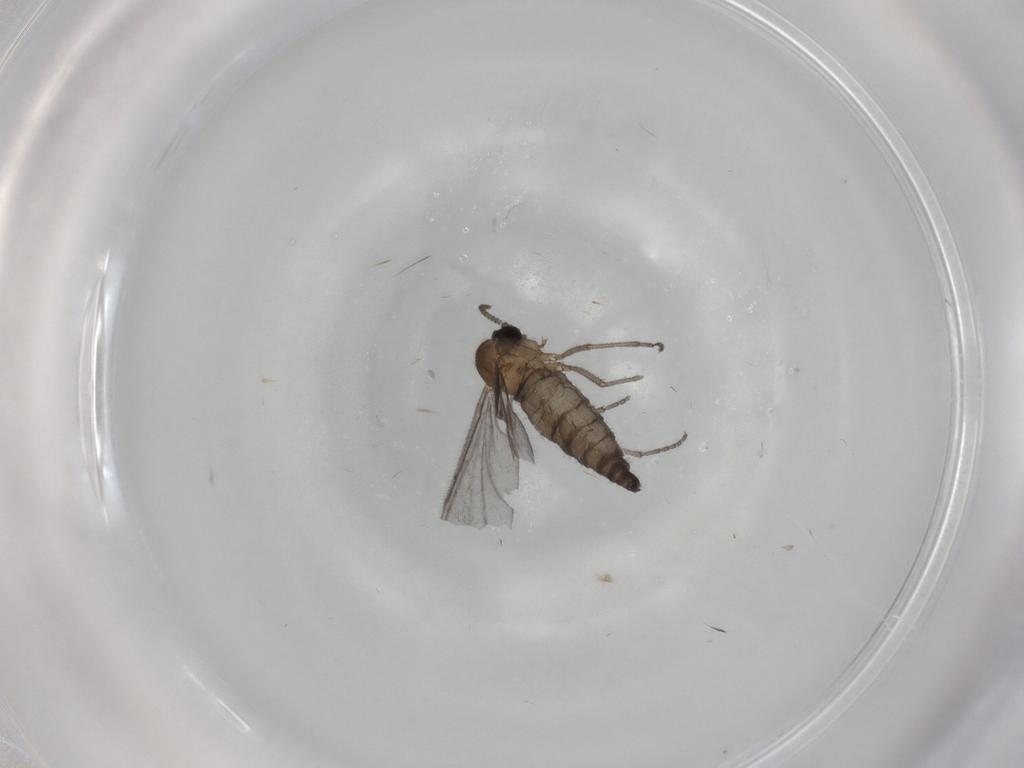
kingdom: Animalia
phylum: Arthropoda
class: Insecta
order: Diptera
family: Sciaridae
